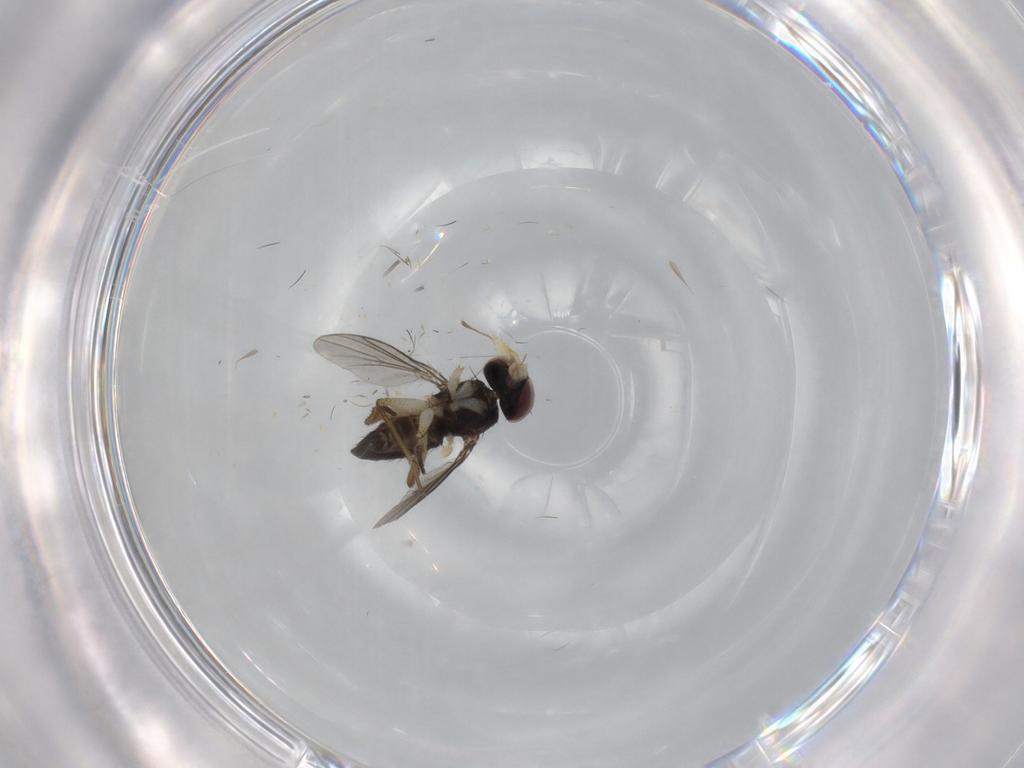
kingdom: Animalia
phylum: Arthropoda
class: Insecta
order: Diptera
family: Dolichopodidae
